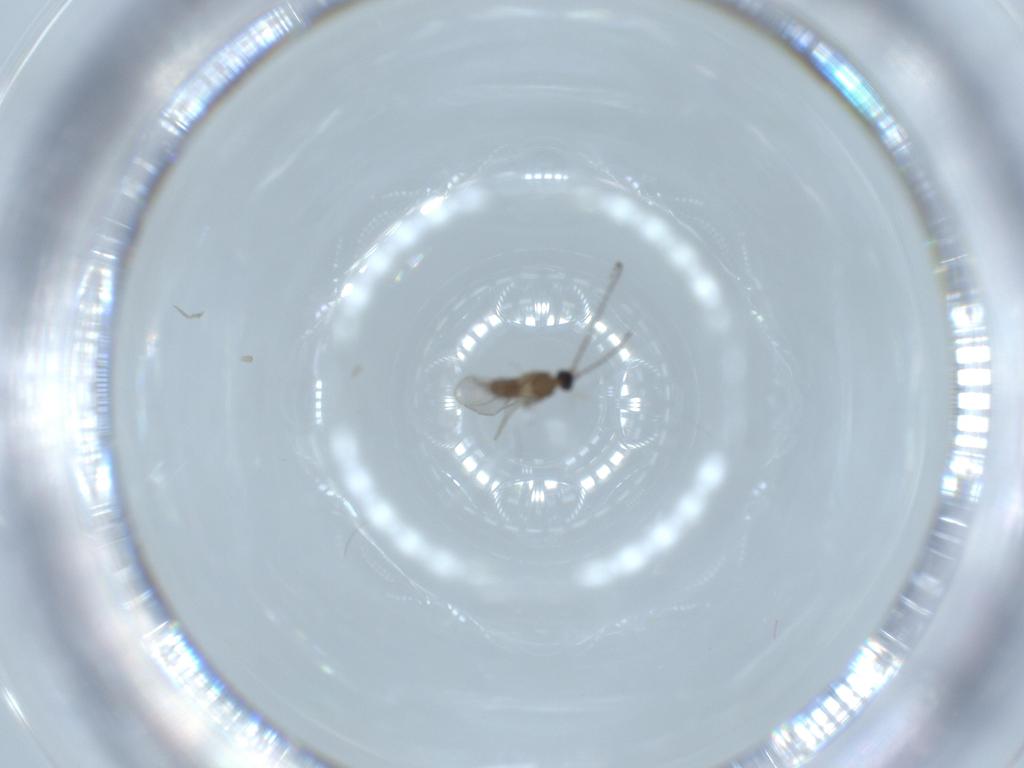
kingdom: Animalia
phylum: Arthropoda
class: Insecta
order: Diptera
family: Cecidomyiidae
